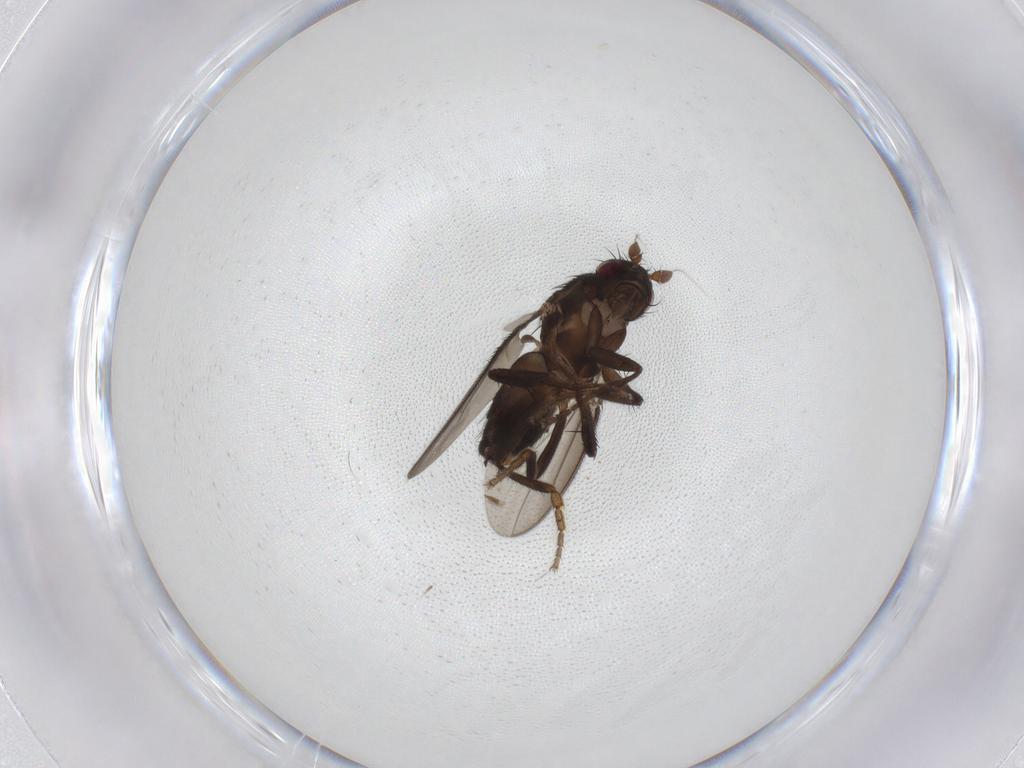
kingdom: Animalia
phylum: Arthropoda
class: Insecta
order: Diptera
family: Sphaeroceridae
